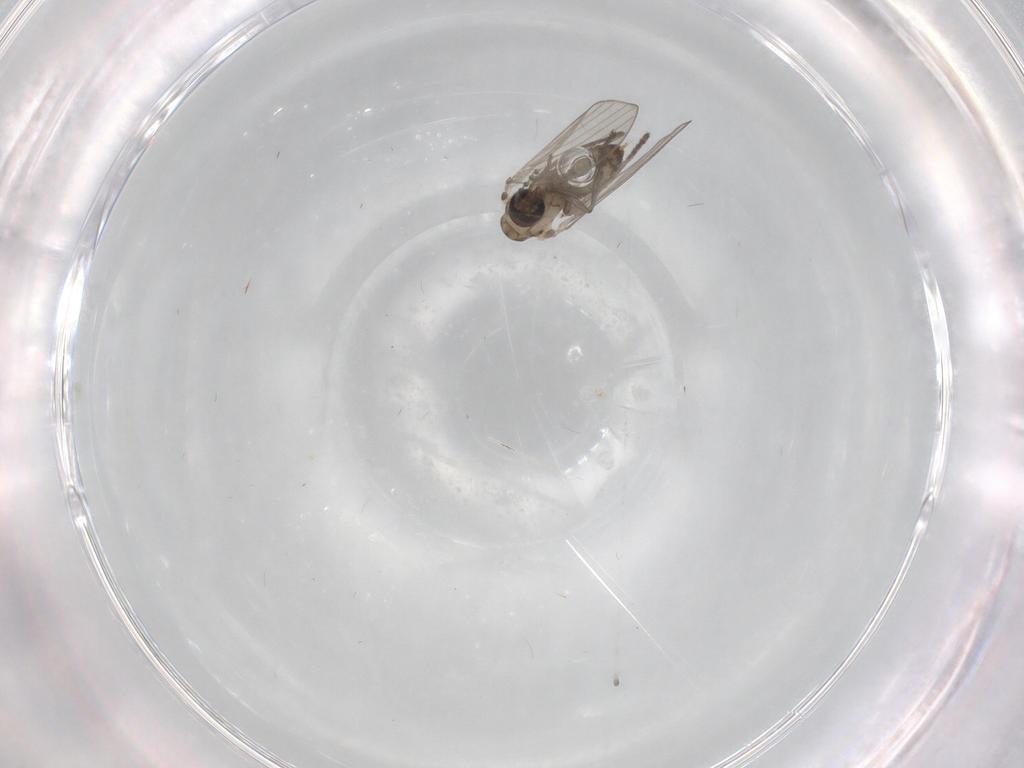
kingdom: Animalia
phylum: Arthropoda
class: Insecta
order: Diptera
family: Psychodidae
